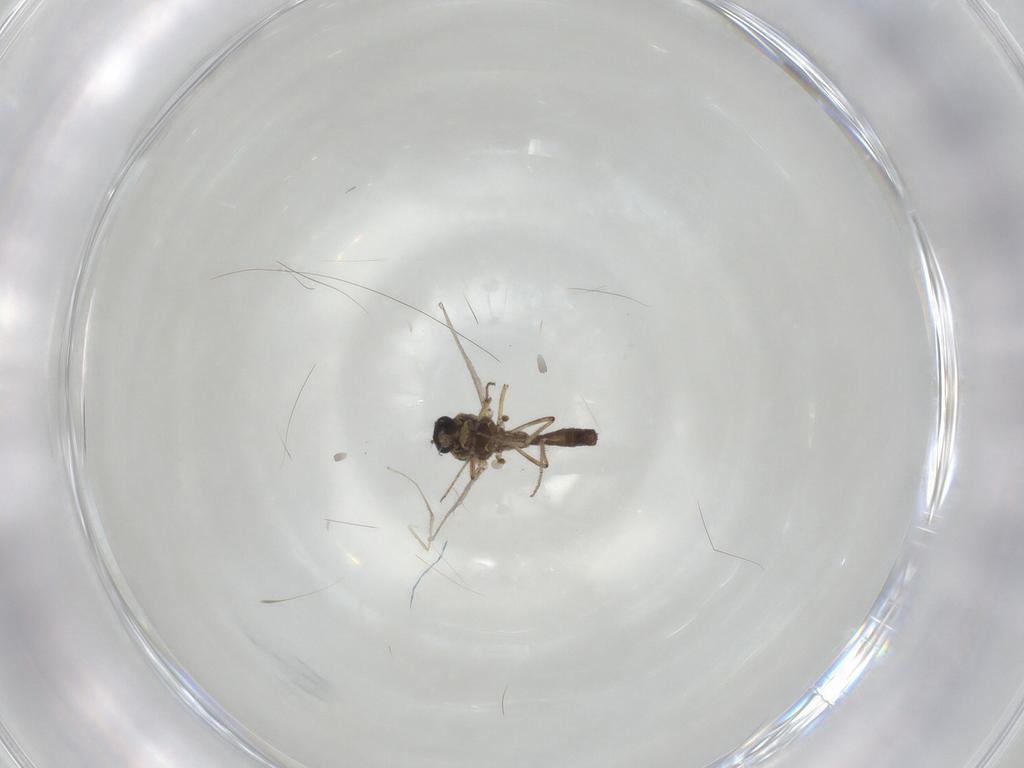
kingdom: Animalia
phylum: Arthropoda
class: Insecta
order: Diptera
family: Ceratopogonidae
